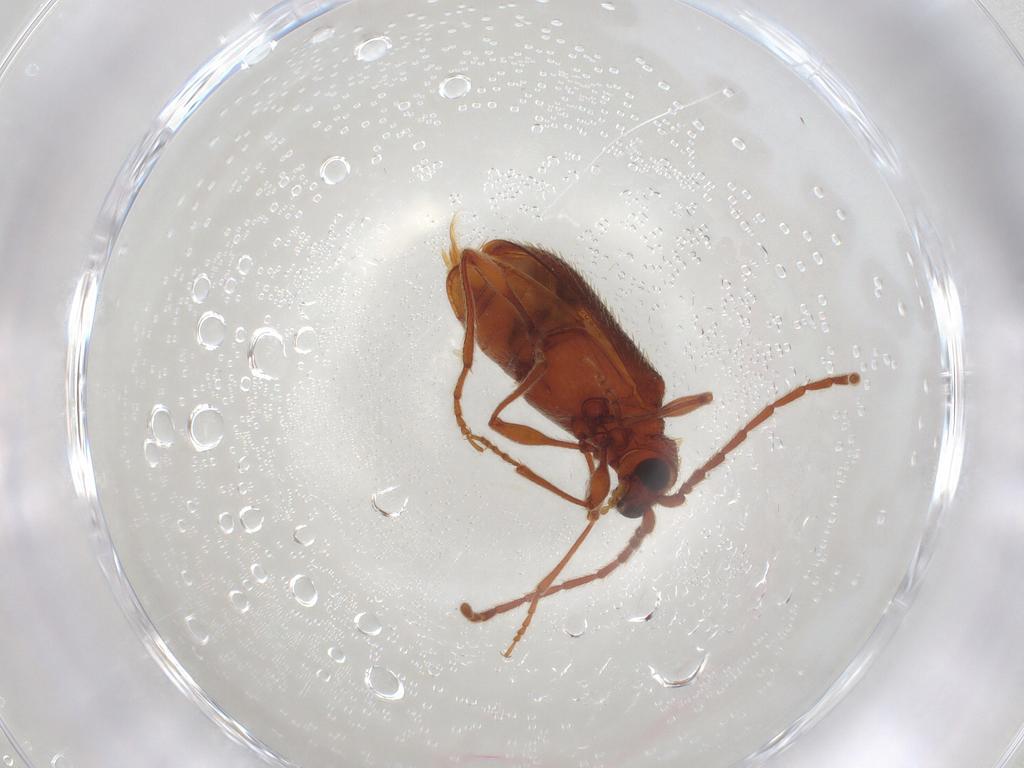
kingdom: Animalia
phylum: Arthropoda
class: Insecta
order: Coleoptera
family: Ptinidae
